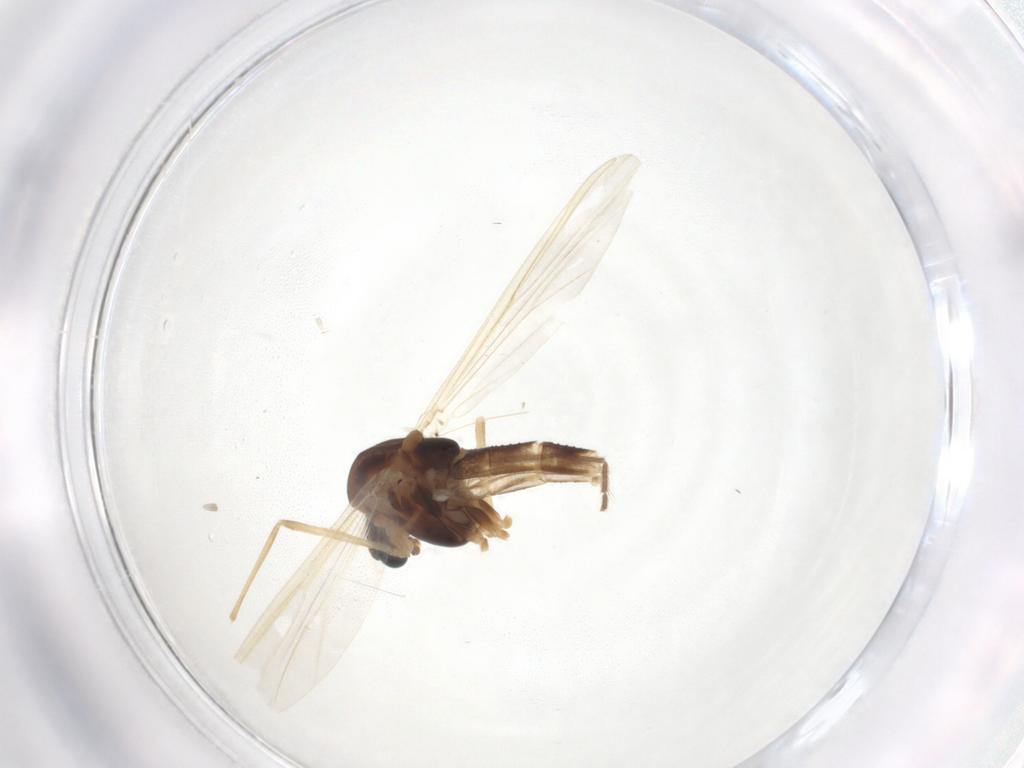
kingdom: Animalia
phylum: Arthropoda
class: Insecta
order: Diptera
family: Chironomidae
